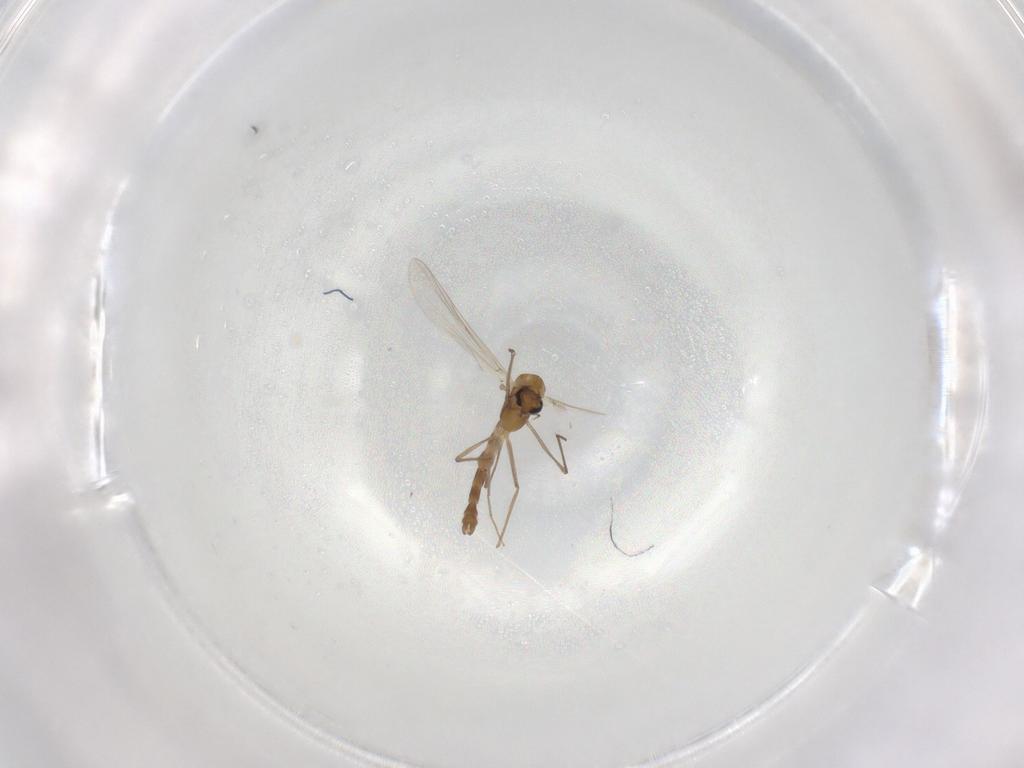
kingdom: Animalia
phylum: Arthropoda
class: Insecta
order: Diptera
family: Chironomidae
